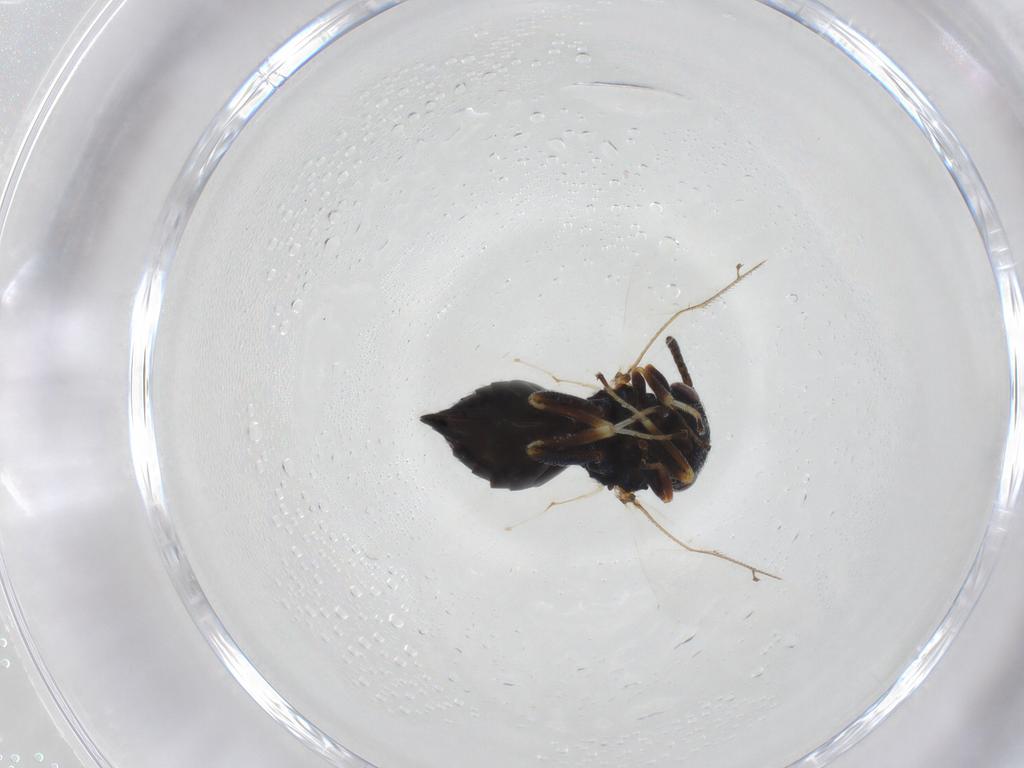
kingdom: Animalia
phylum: Arthropoda
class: Insecta
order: Hymenoptera
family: Pteromalidae
